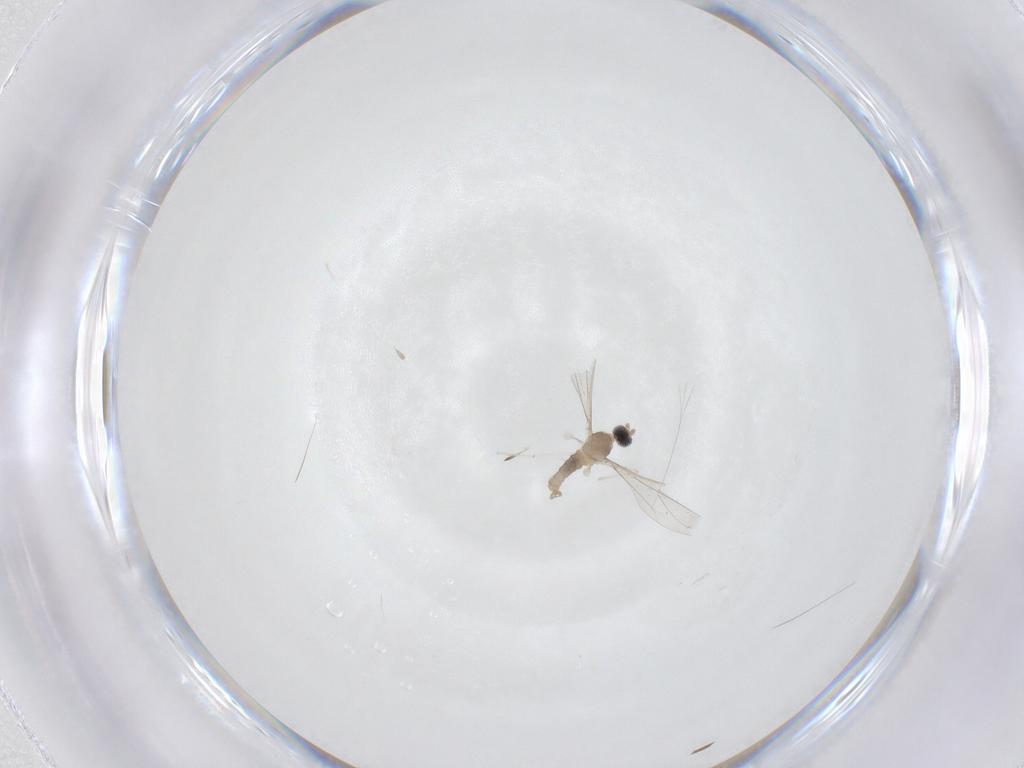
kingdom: Animalia
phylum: Arthropoda
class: Insecta
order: Diptera
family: Cecidomyiidae
